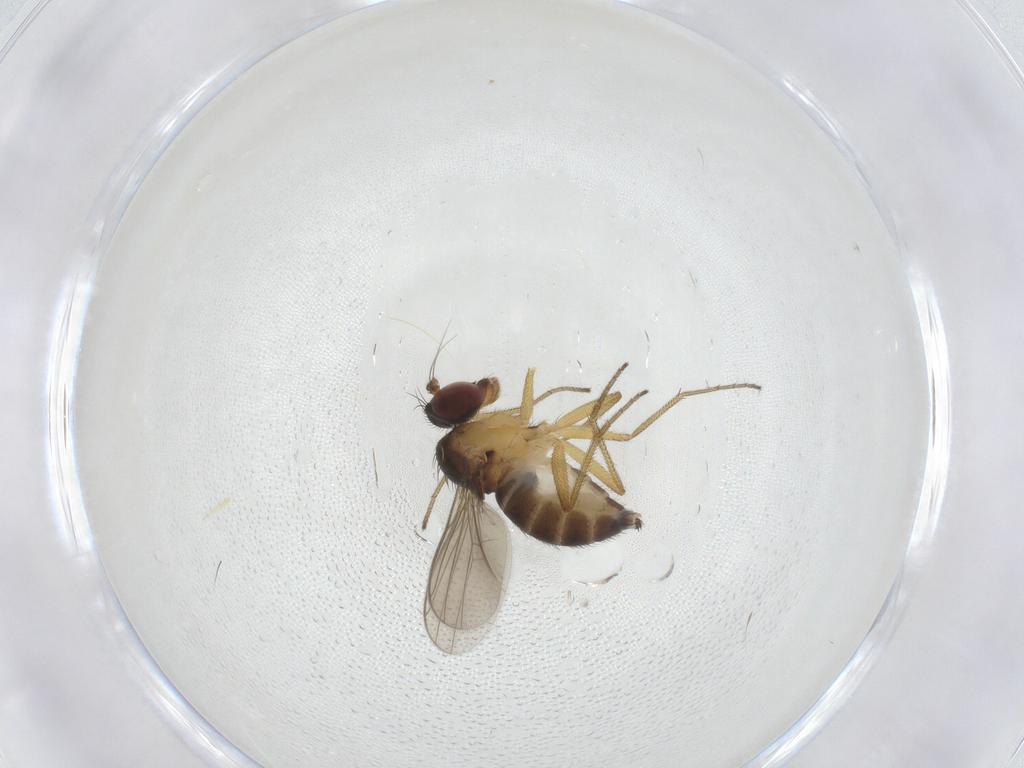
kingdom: Animalia
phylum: Arthropoda
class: Insecta
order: Diptera
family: Dolichopodidae
